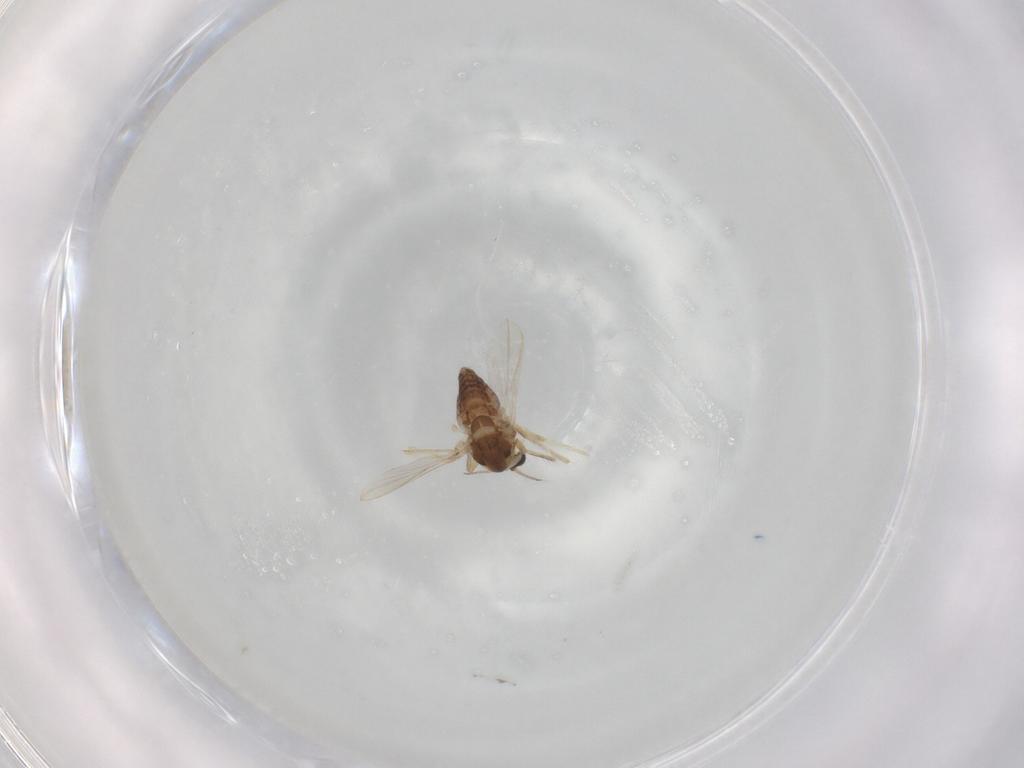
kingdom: Animalia
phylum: Arthropoda
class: Insecta
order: Diptera
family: Chironomidae
